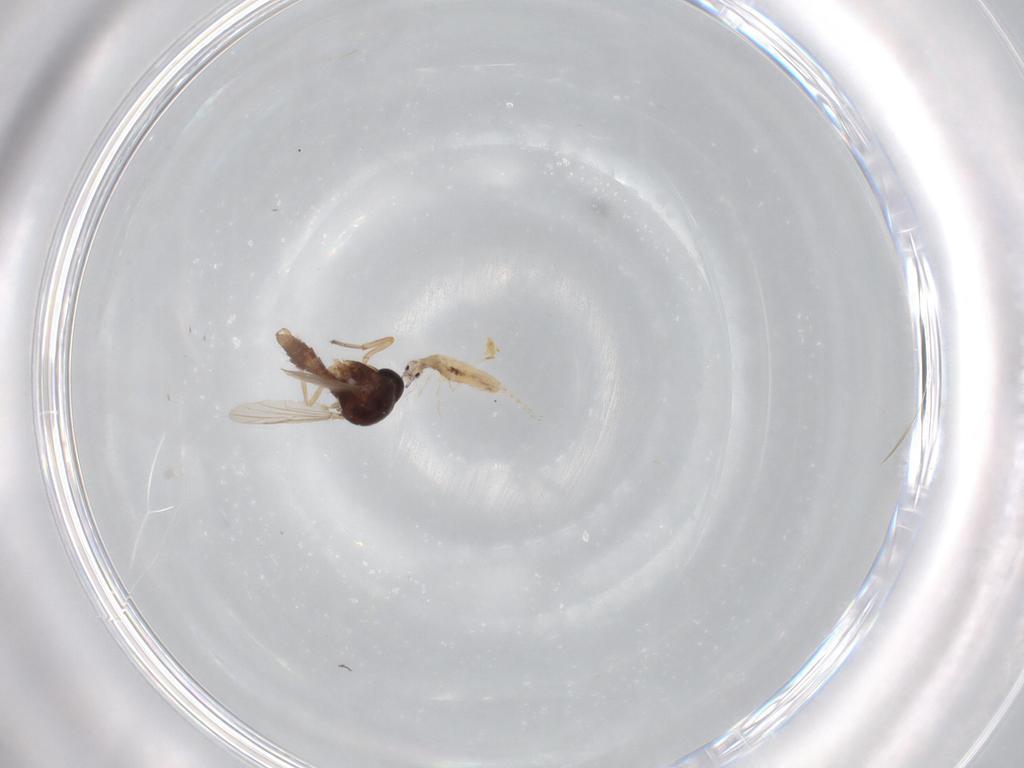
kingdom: Animalia
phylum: Arthropoda
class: Insecta
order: Diptera
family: Ceratopogonidae
